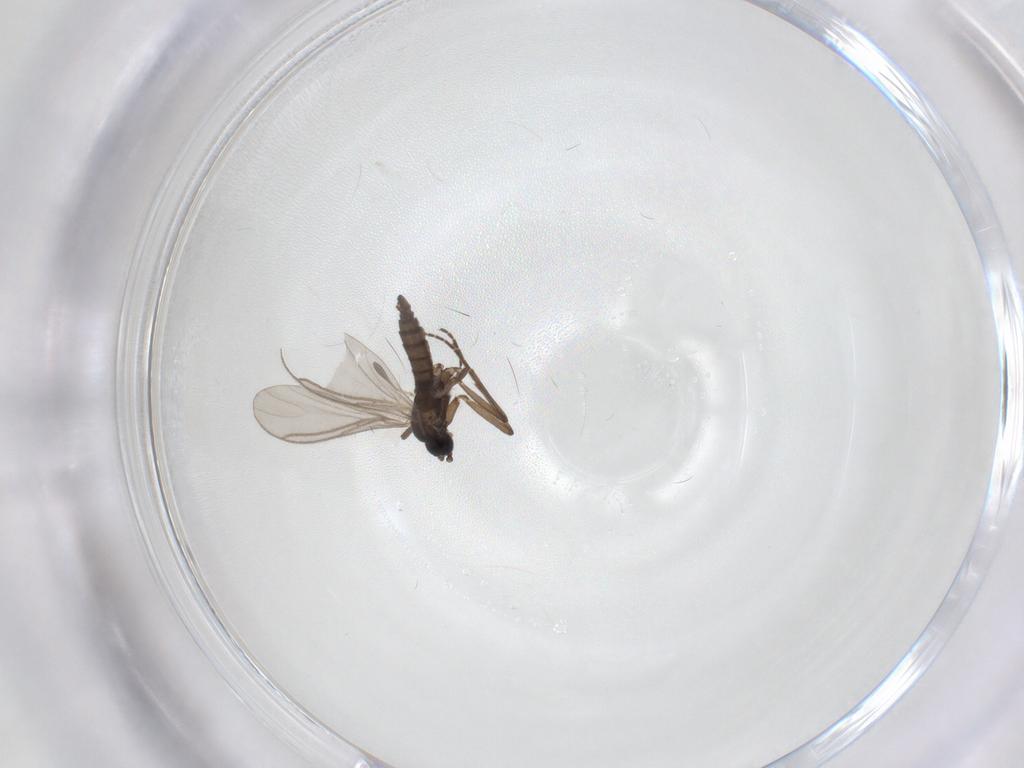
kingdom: Animalia
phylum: Arthropoda
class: Insecta
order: Diptera
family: Sciaridae
